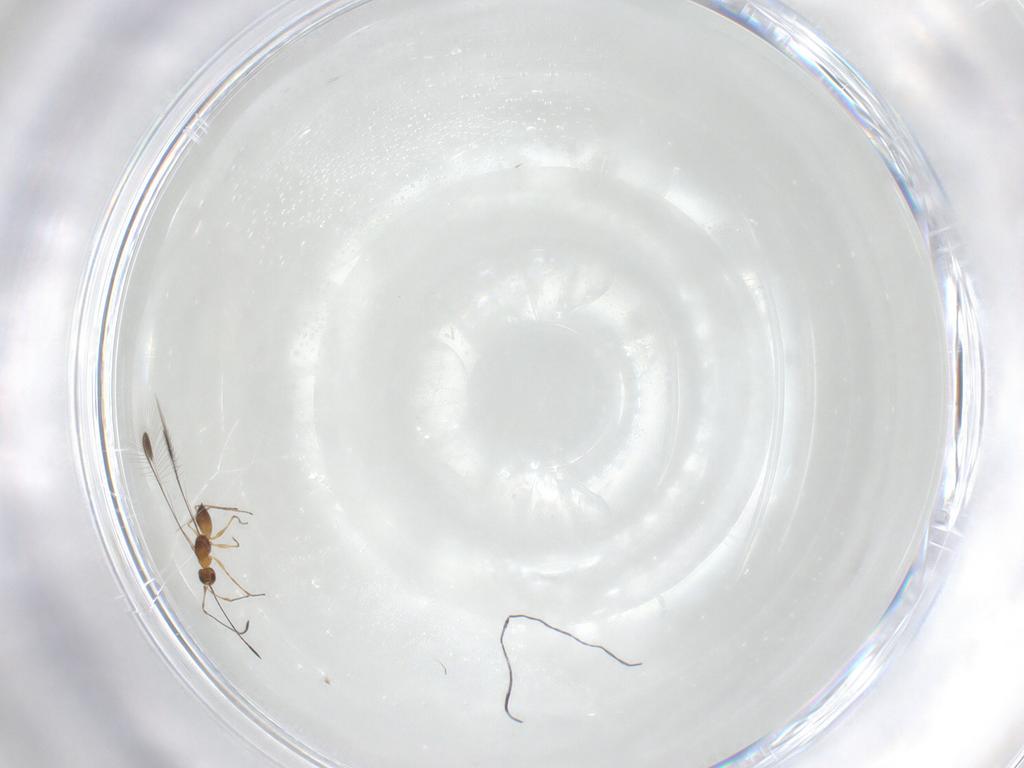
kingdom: Animalia
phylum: Arthropoda
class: Insecta
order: Hymenoptera
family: Mymaridae
